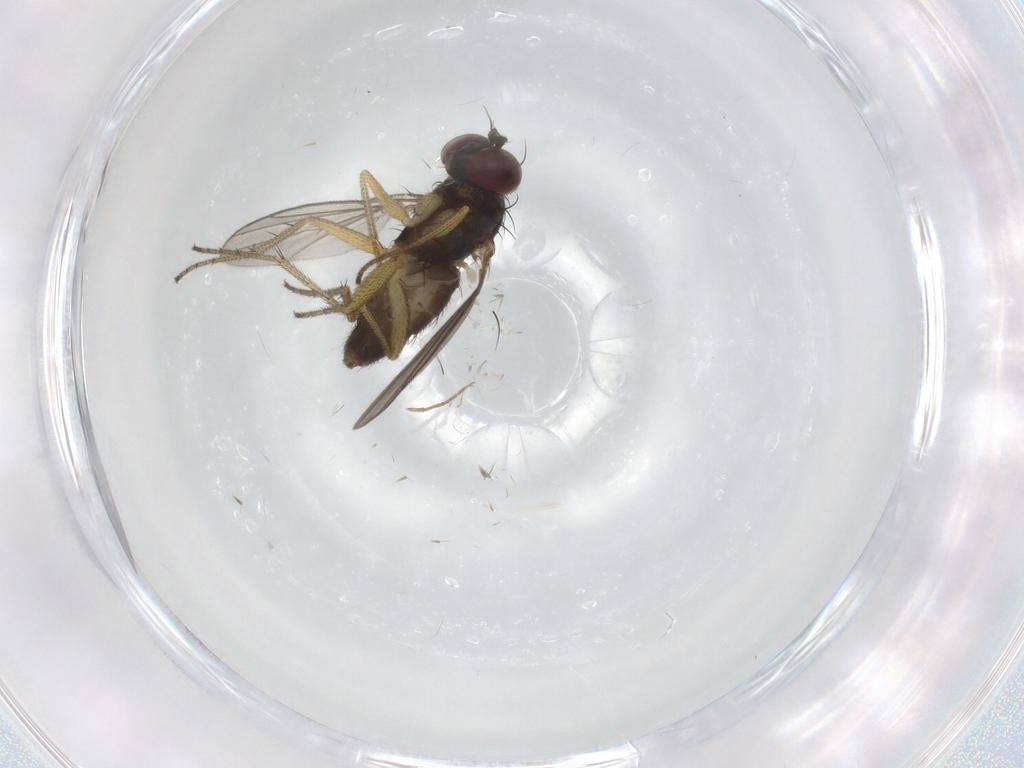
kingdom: Animalia
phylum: Arthropoda
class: Insecta
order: Diptera
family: Dolichopodidae
